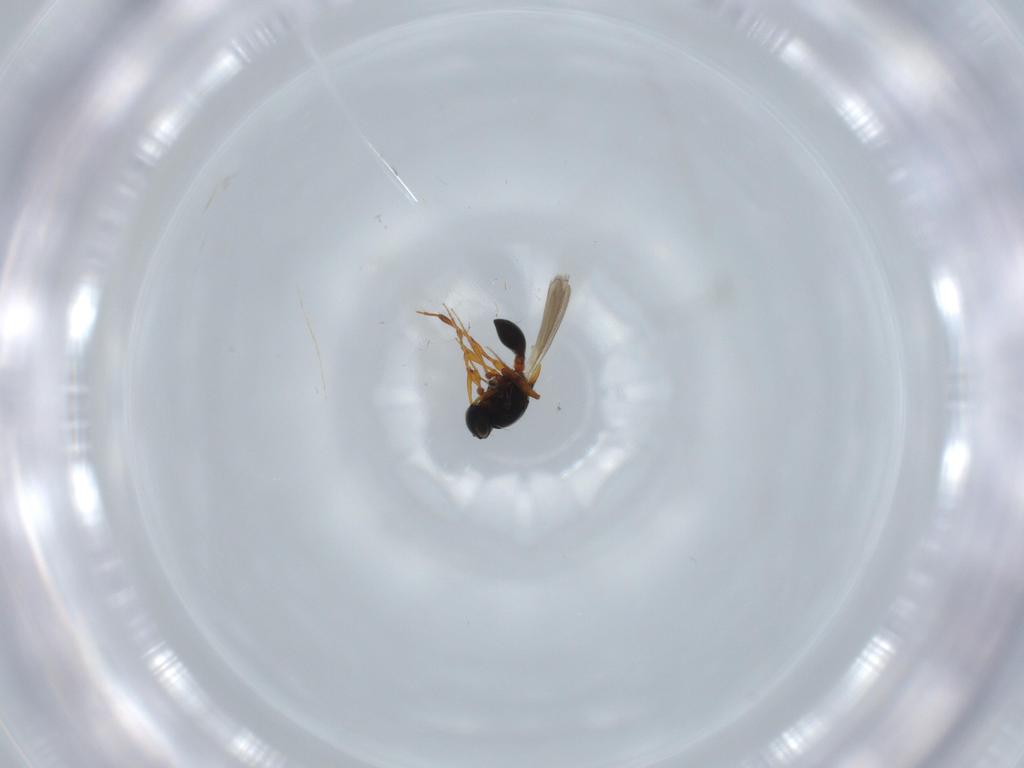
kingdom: Animalia
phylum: Arthropoda
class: Insecta
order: Hymenoptera
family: Platygastridae
